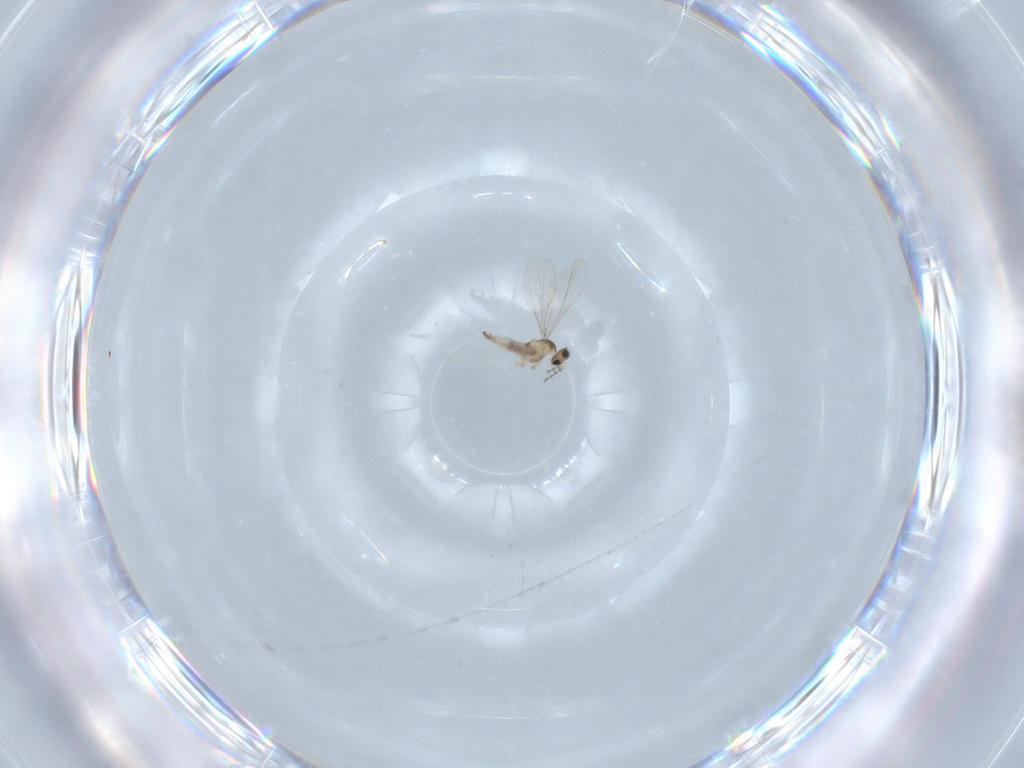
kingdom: Animalia
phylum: Arthropoda
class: Insecta
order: Diptera
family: Cecidomyiidae
